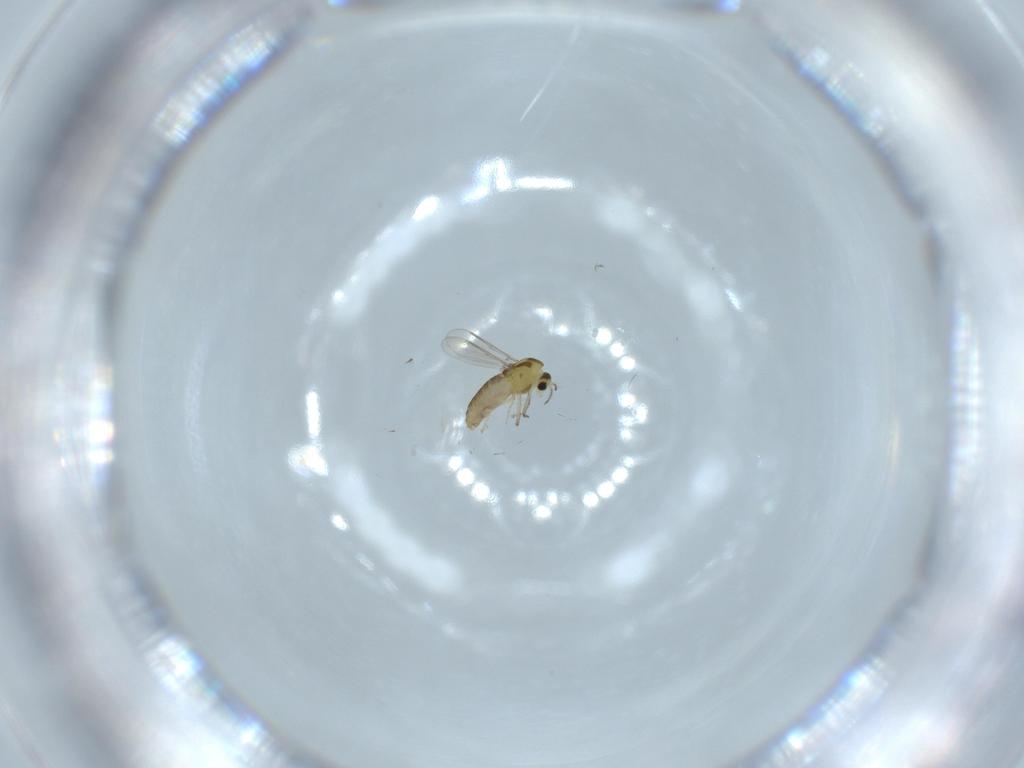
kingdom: Animalia
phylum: Arthropoda
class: Insecta
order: Diptera
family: Chironomidae
